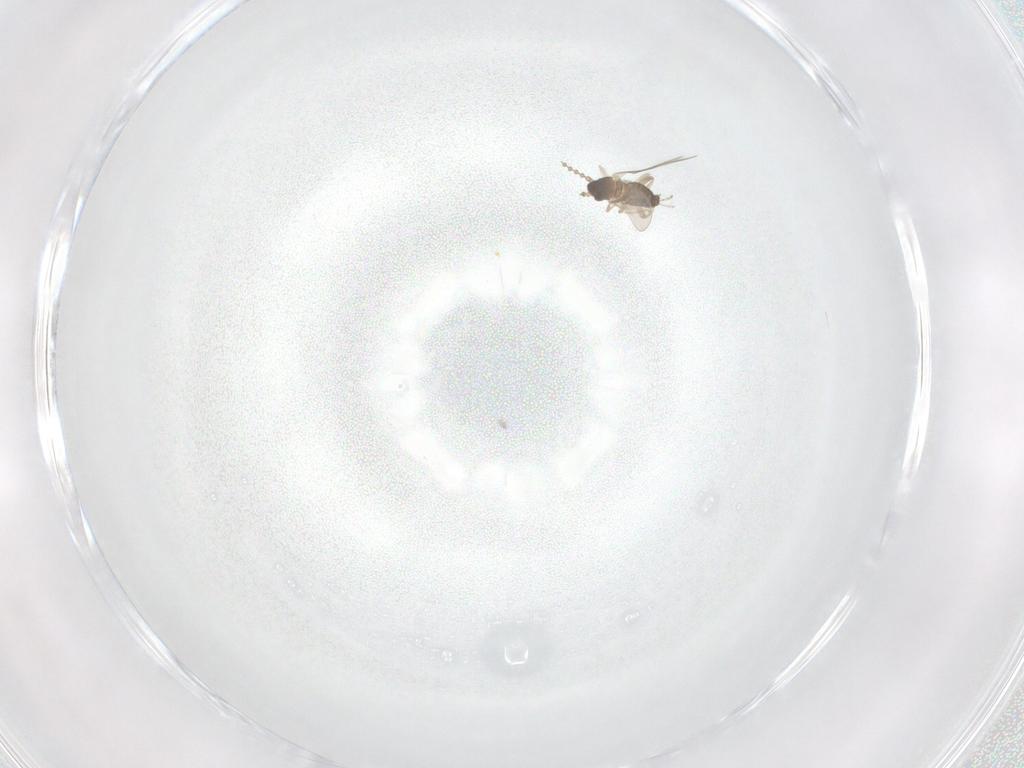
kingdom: Animalia
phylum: Arthropoda
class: Insecta
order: Diptera
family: Cecidomyiidae
